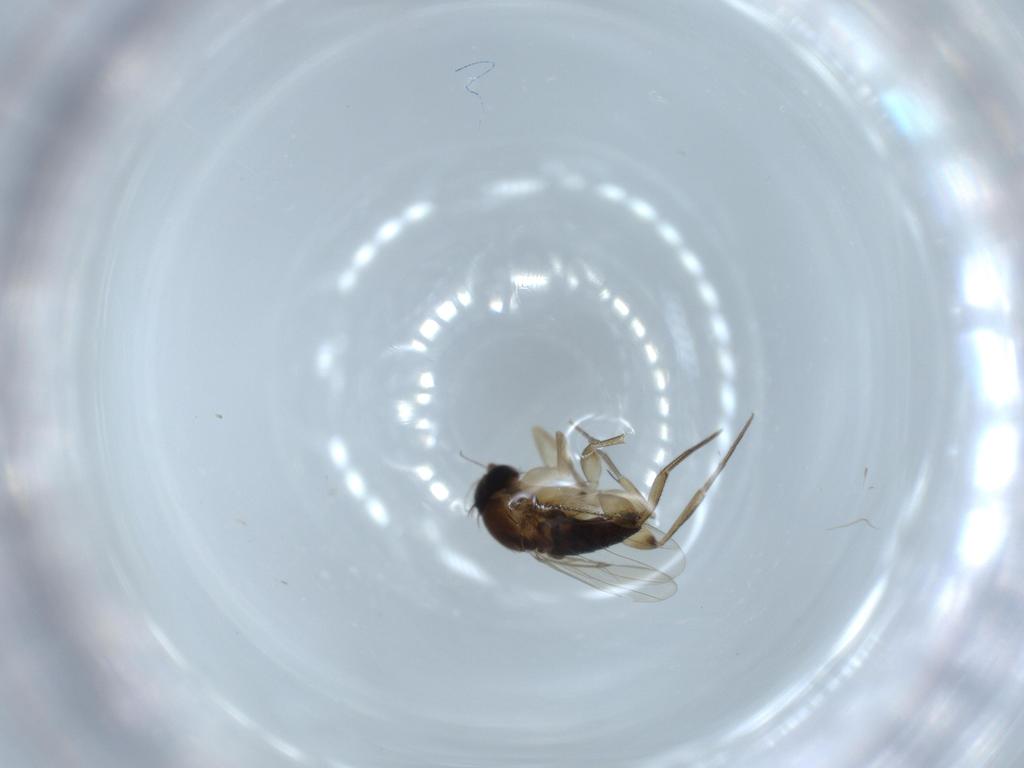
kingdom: Animalia
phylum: Arthropoda
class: Insecta
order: Diptera
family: Phoridae
